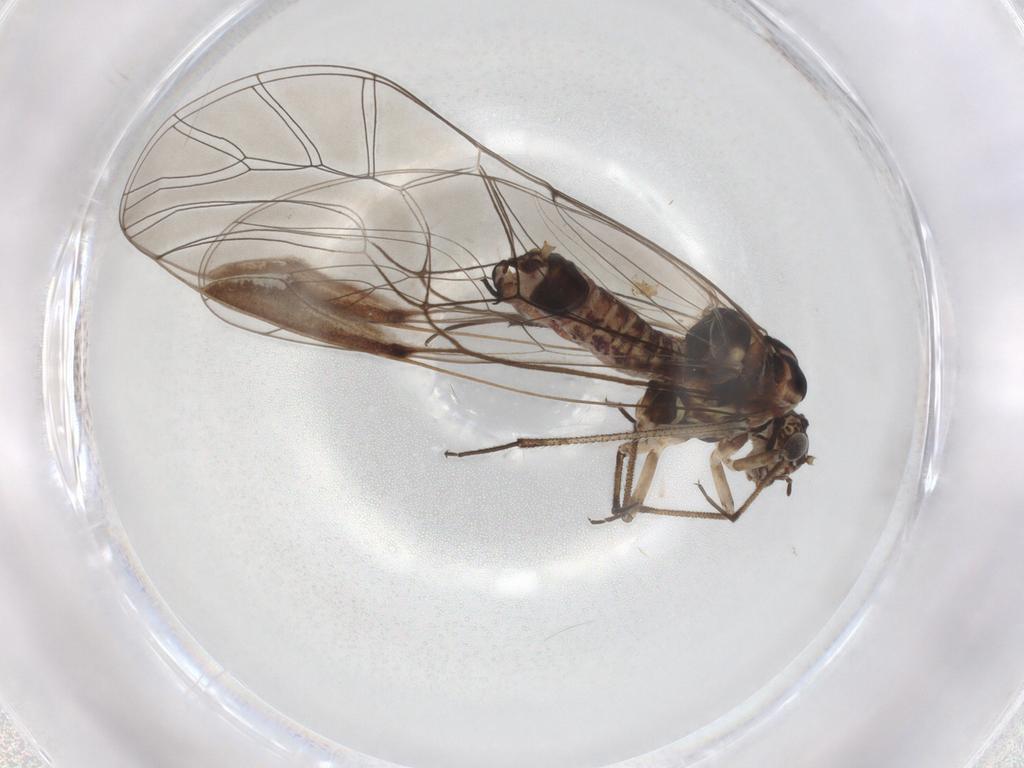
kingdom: Animalia
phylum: Arthropoda
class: Insecta
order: Psocodea
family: Psocidae
